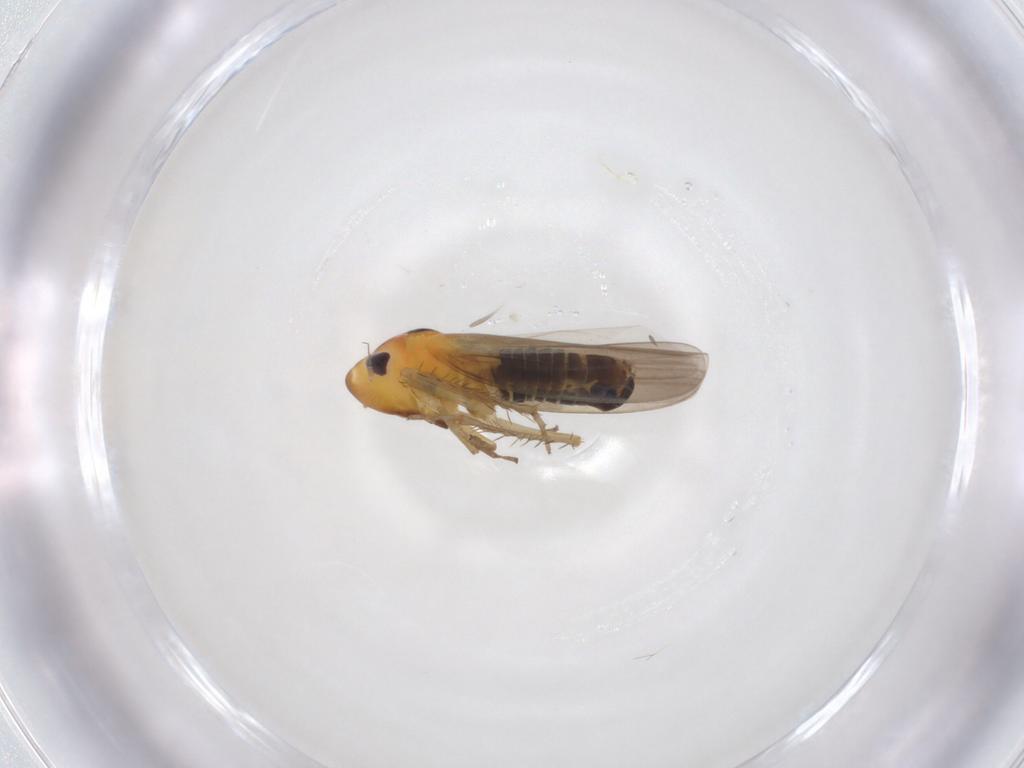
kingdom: Animalia
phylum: Arthropoda
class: Insecta
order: Hemiptera
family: Cicadellidae
